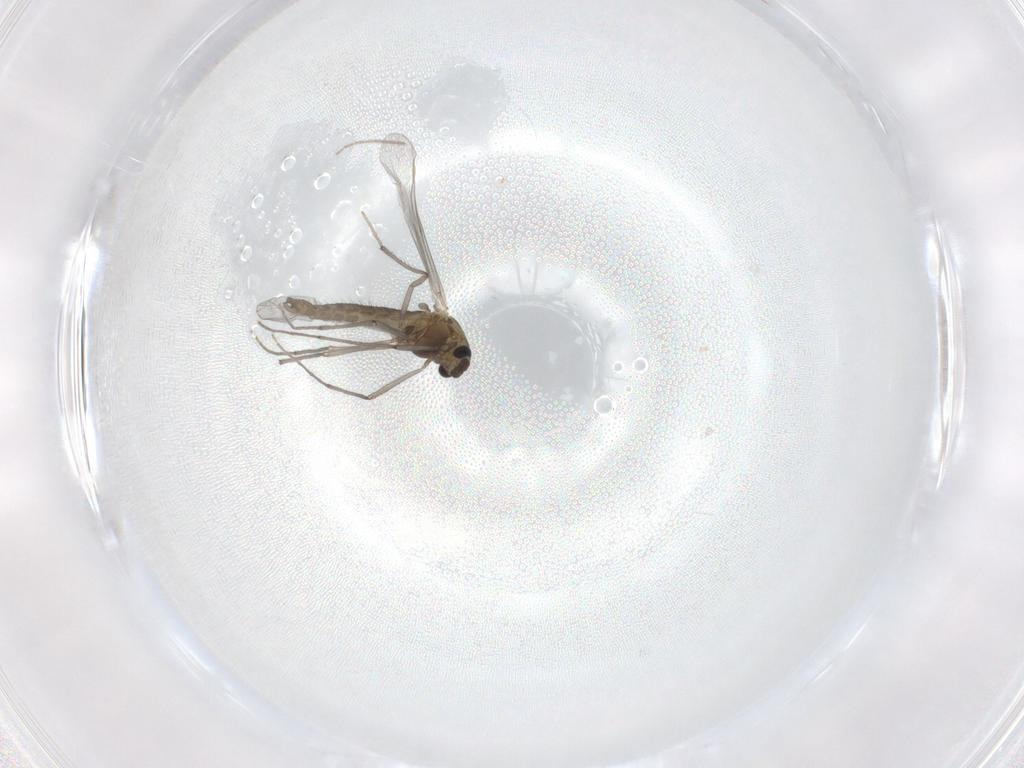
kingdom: Animalia
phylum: Arthropoda
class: Insecta
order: Diptera
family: Chironomidae
